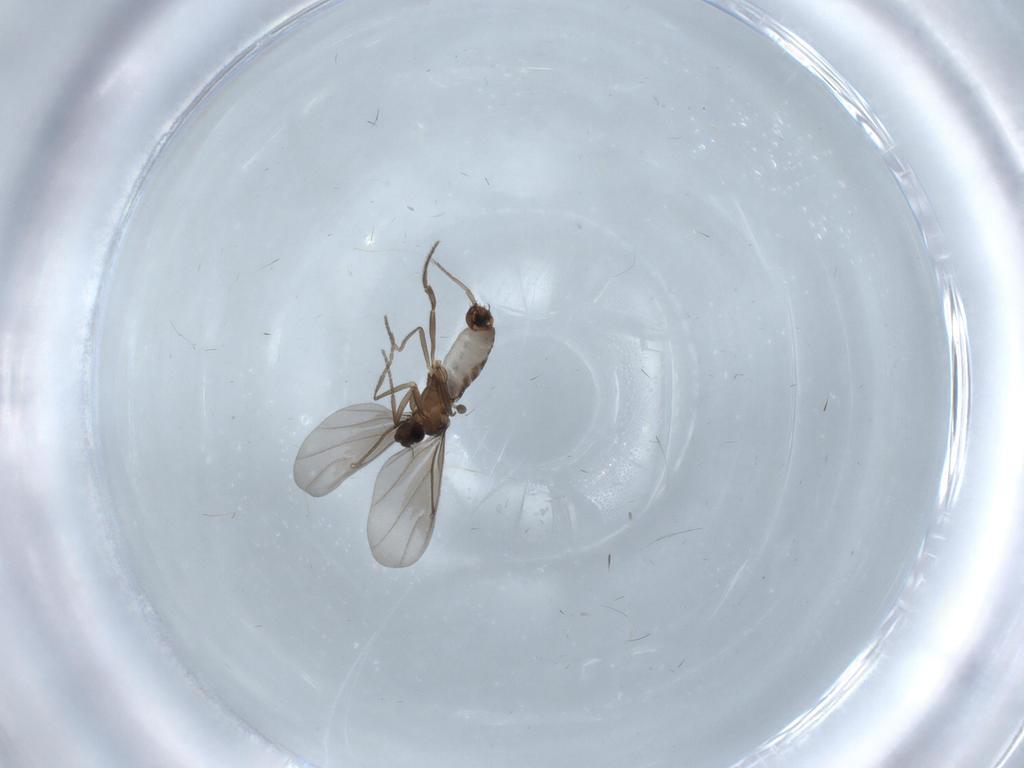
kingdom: Animalia
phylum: Arthropoda
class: Insecta
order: Diptera
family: Phoridae
